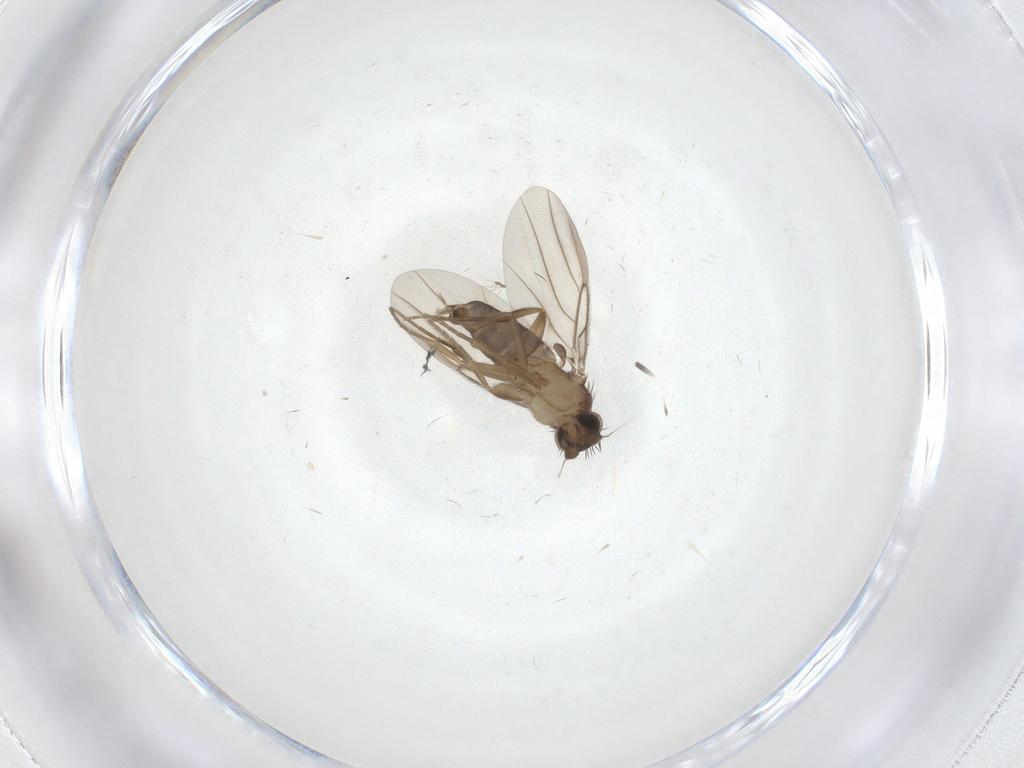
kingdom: Animalia
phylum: Arthropoda
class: Insecta
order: Diptera
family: Chironomidae
